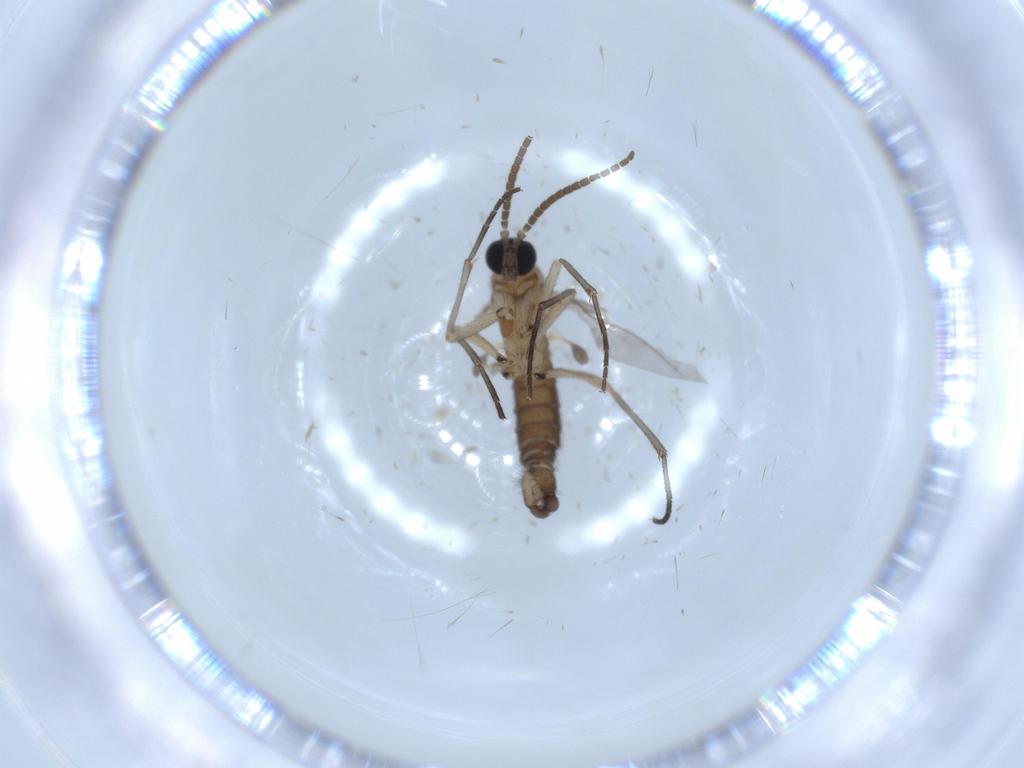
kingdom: Animalia
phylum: Arthropoda
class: Insecta
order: Diptera
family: Sciaridae
